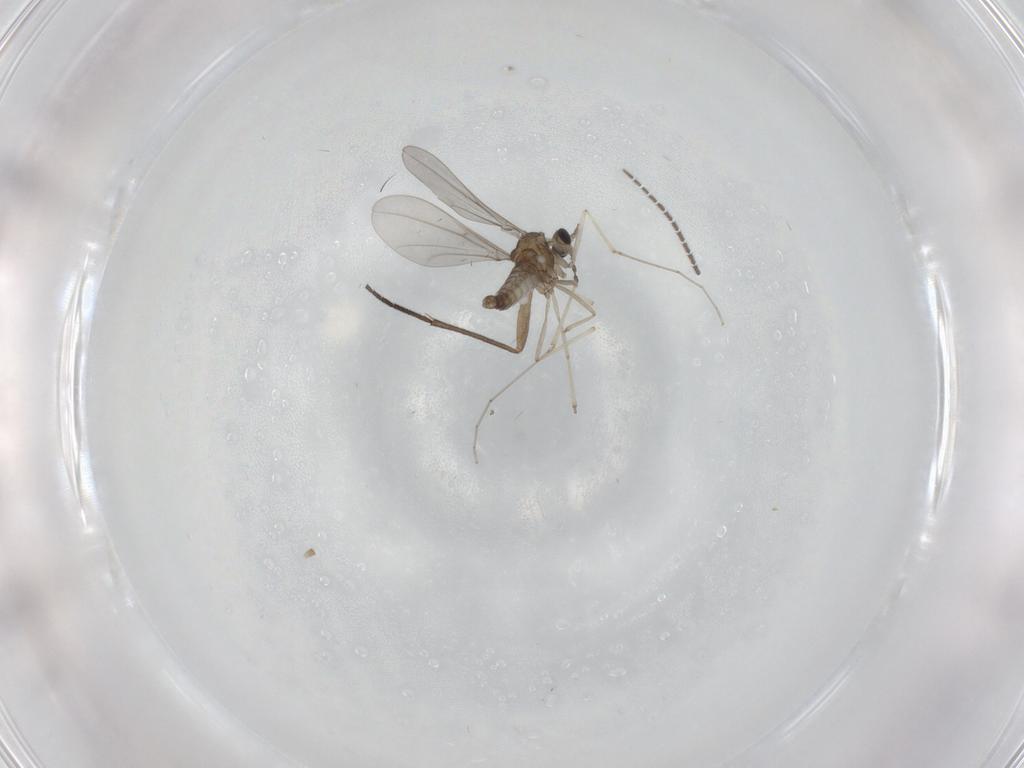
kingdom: Animalia
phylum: Arthropoda
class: Insecta
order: Diptera
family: Cecidomyiidae
